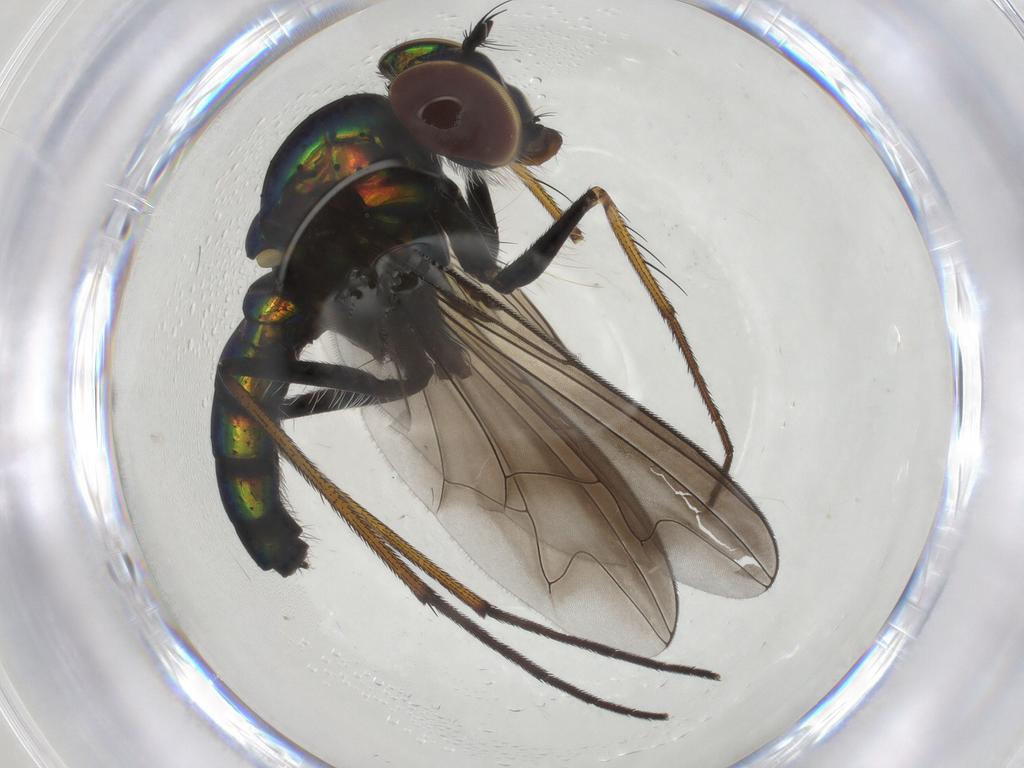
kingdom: Animalia
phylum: Arthropoda
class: Insecta
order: Diptera
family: Dolichopodidae
